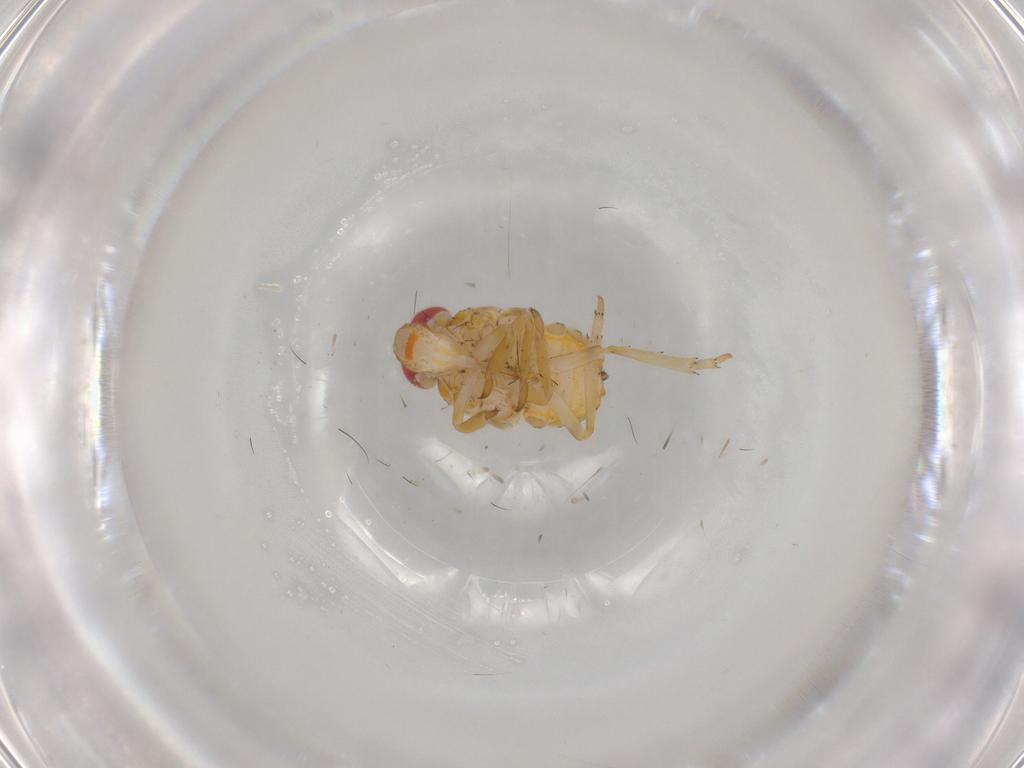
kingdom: Animalia
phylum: Arthropoda
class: Insecta
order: Hemiptera
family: Issidae
